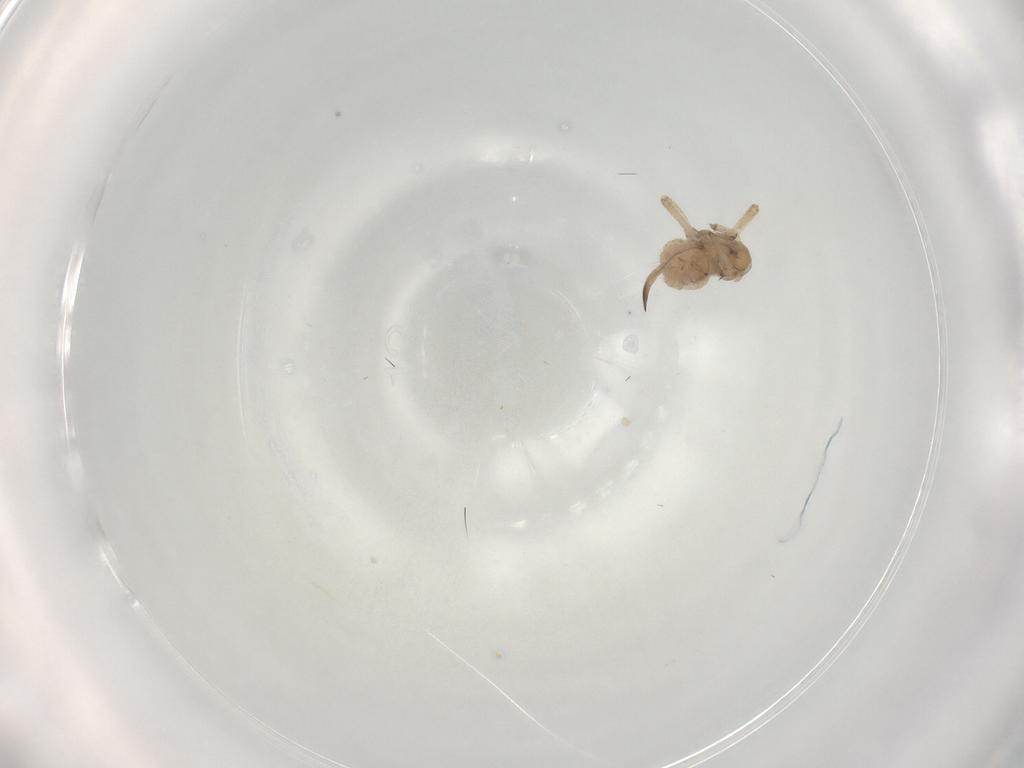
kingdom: Animalia
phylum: Arthropoda
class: Insecta
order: Hemiptera
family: Aphididae
